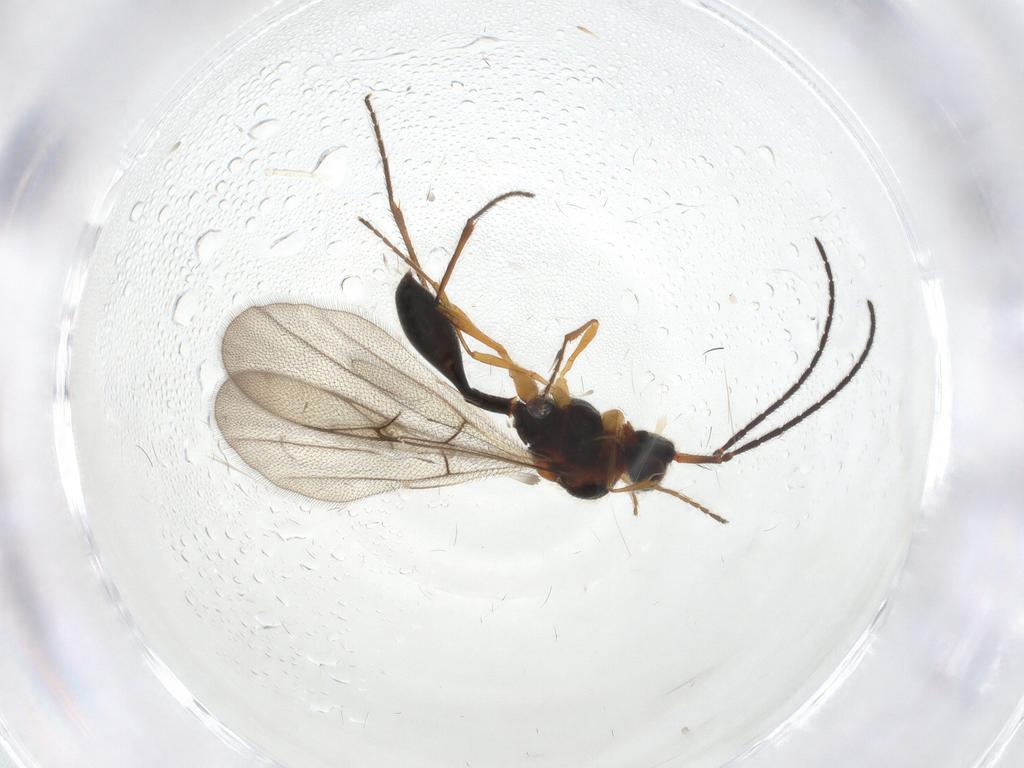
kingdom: Animalia
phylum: Arthropoda
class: Insecta
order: Hymenoptera
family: Diapriidae
